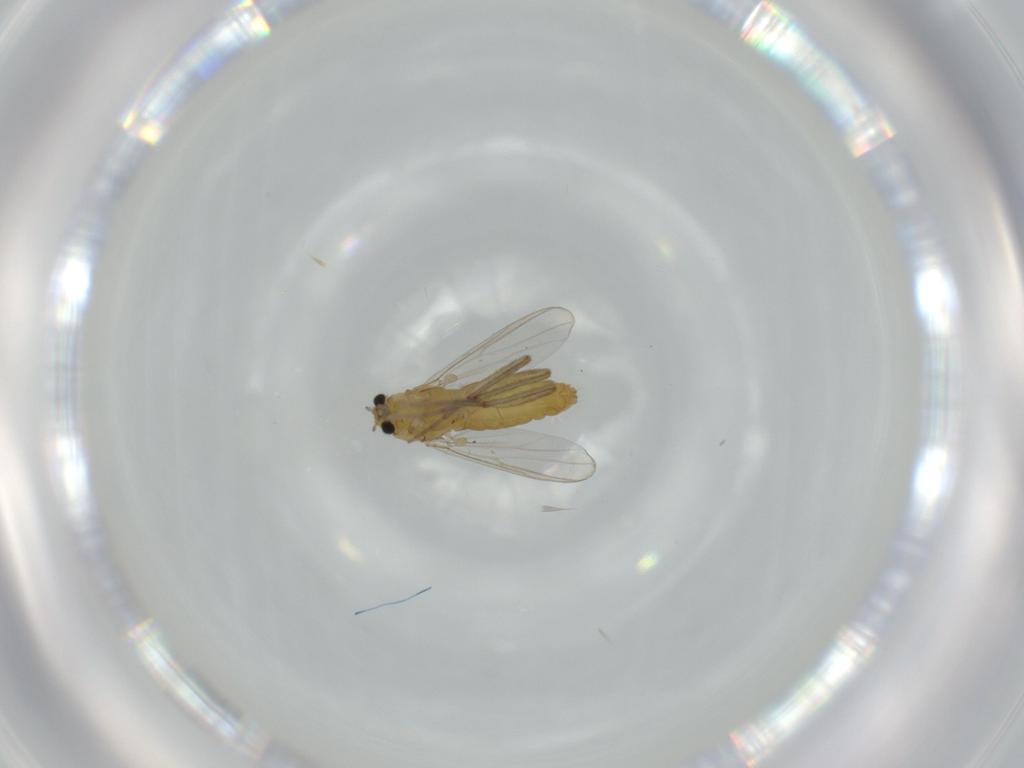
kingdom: Animalia
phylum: Arthropoda
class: Insecta
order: Diptera
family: Chironomidae
